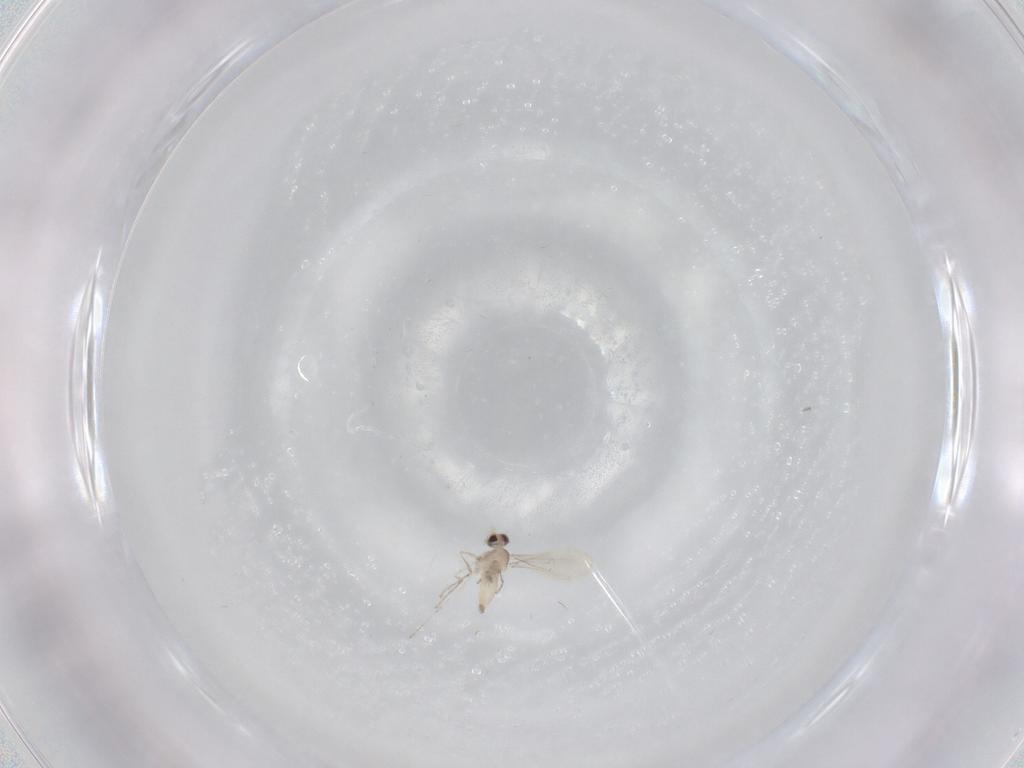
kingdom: Animalia
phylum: Arthropoda
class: Insecta
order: Diptera
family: Cecidomyiidae
